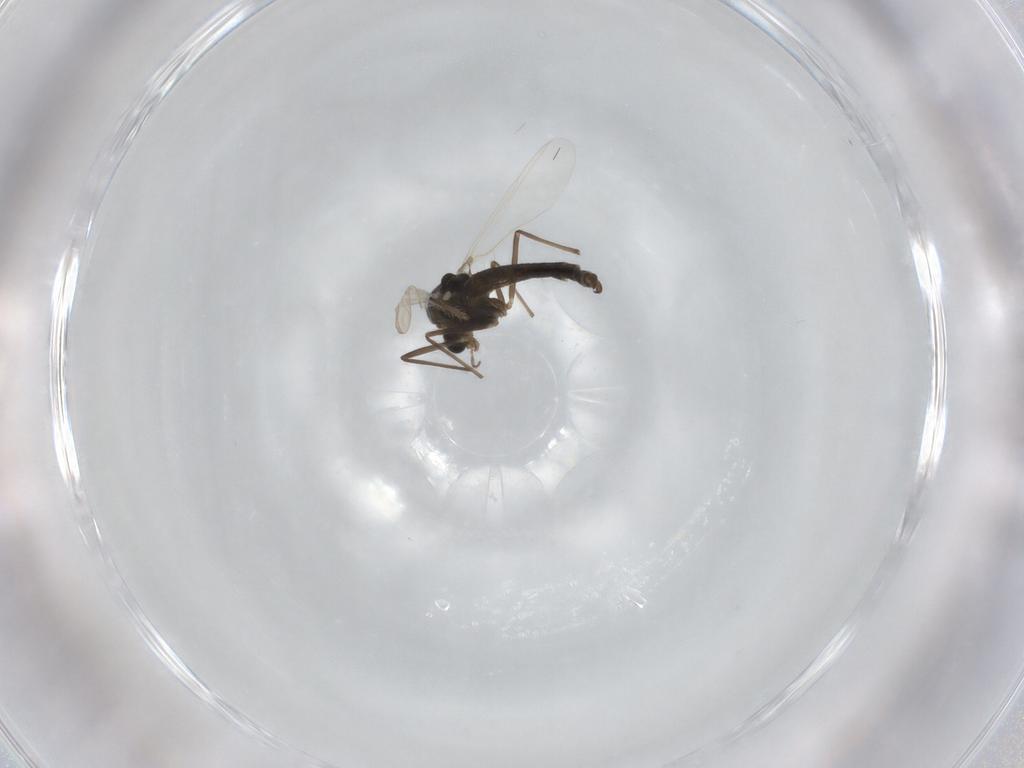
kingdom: Animalia
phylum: Arthropoda
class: Insecta
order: Diptera
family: Chironomidae
